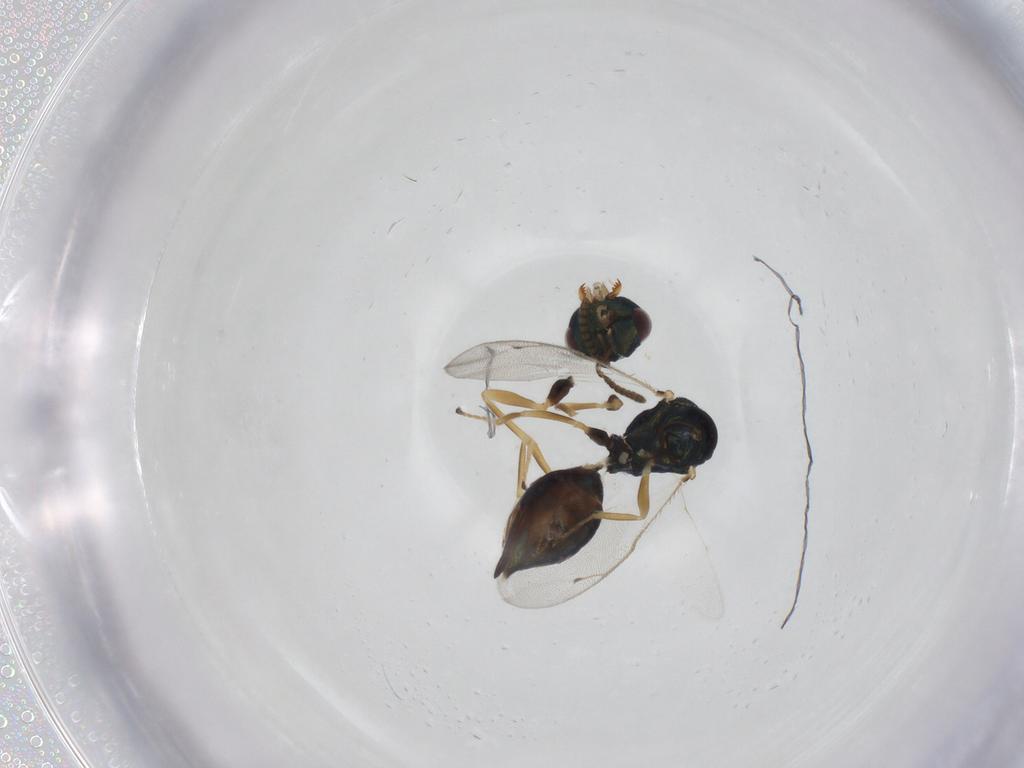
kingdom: Animalia
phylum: Arthropoda
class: Insecta
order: Hymenoptera
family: Pteromalidae
